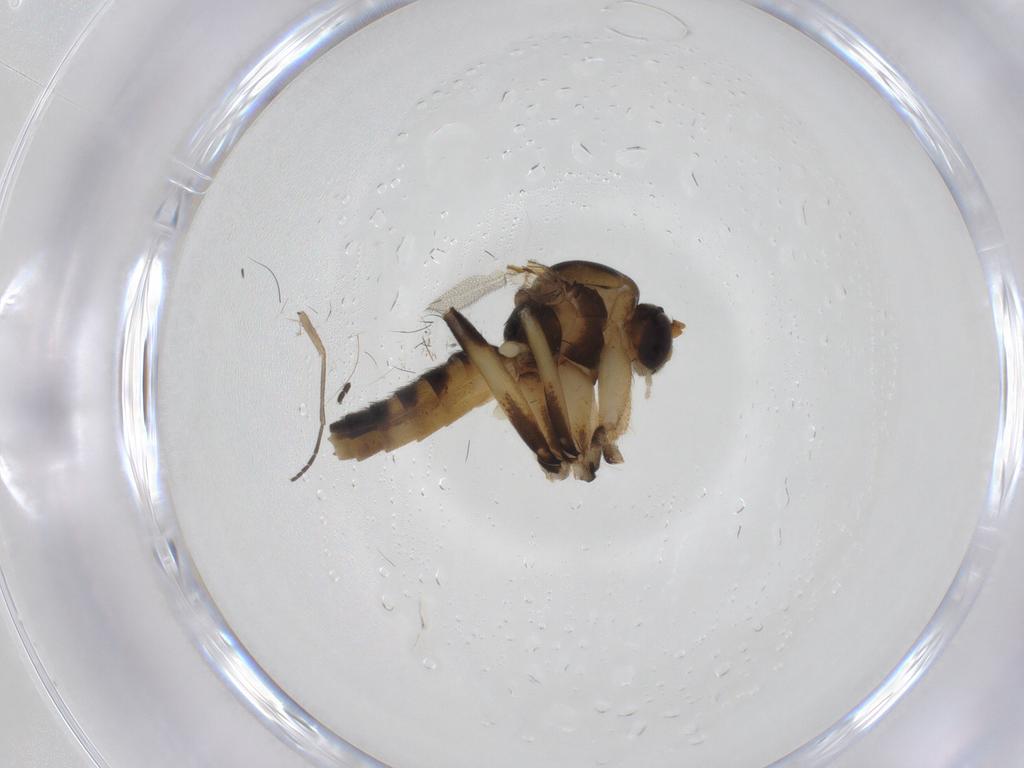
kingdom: Animalia
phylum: Arthropoda
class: Insecta
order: Diptera
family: Sciaridae
